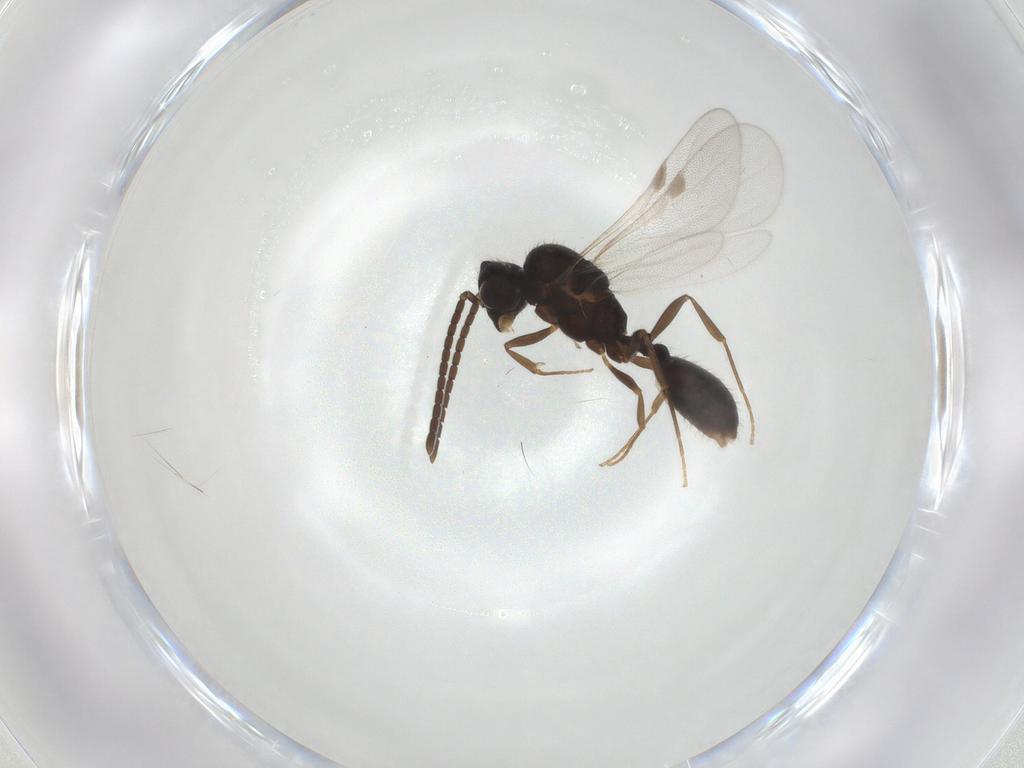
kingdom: Animalia
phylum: Arthropoda
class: Insecta
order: Hymenoptera
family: Formicidae
